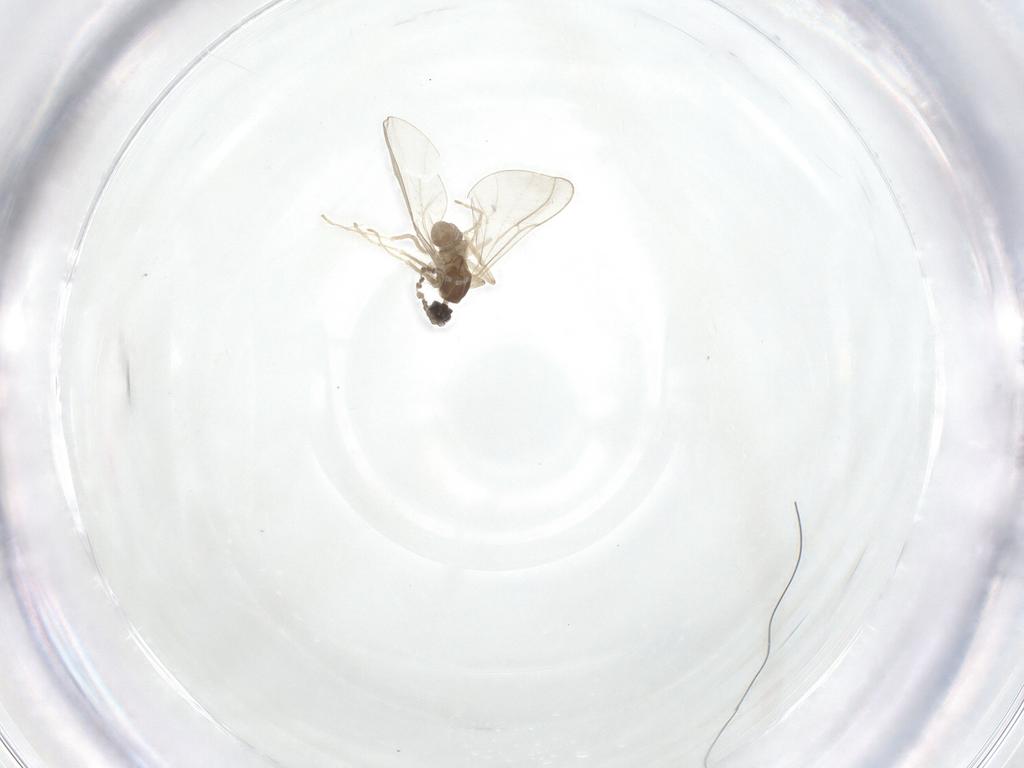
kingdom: Animalia
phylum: Arthropoda
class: Insecta
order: Diptera
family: Cecidomyiidae
